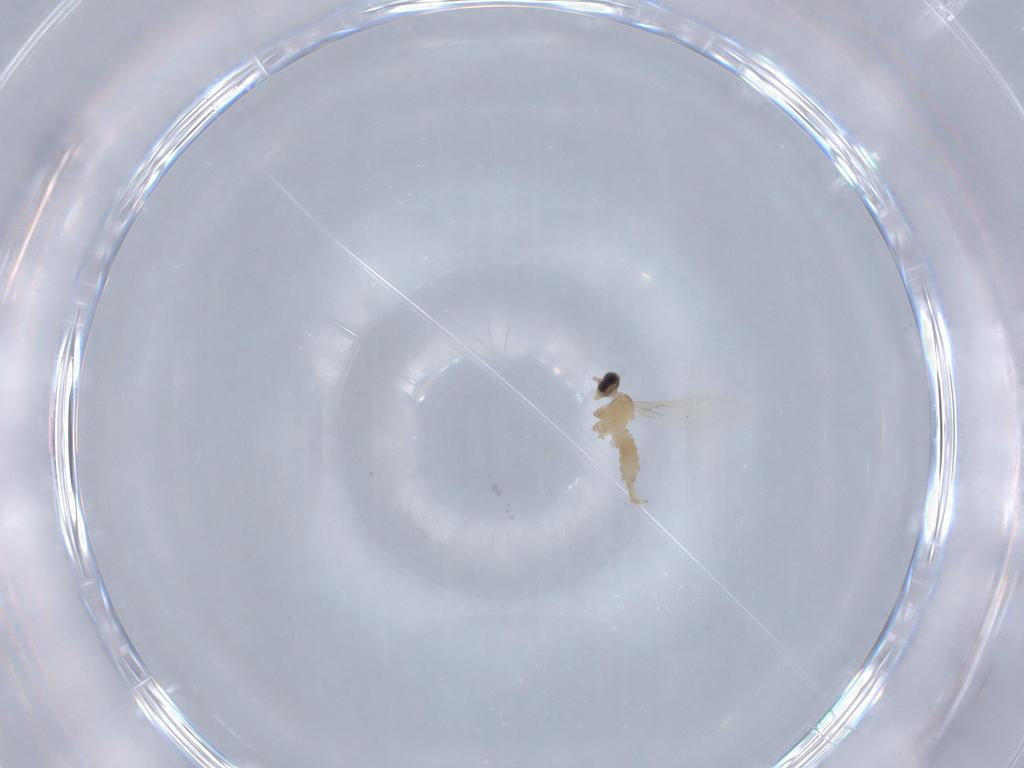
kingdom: Animalia
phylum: Arthropoda
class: Insecta
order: Diptera
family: Cecidomyiidae
